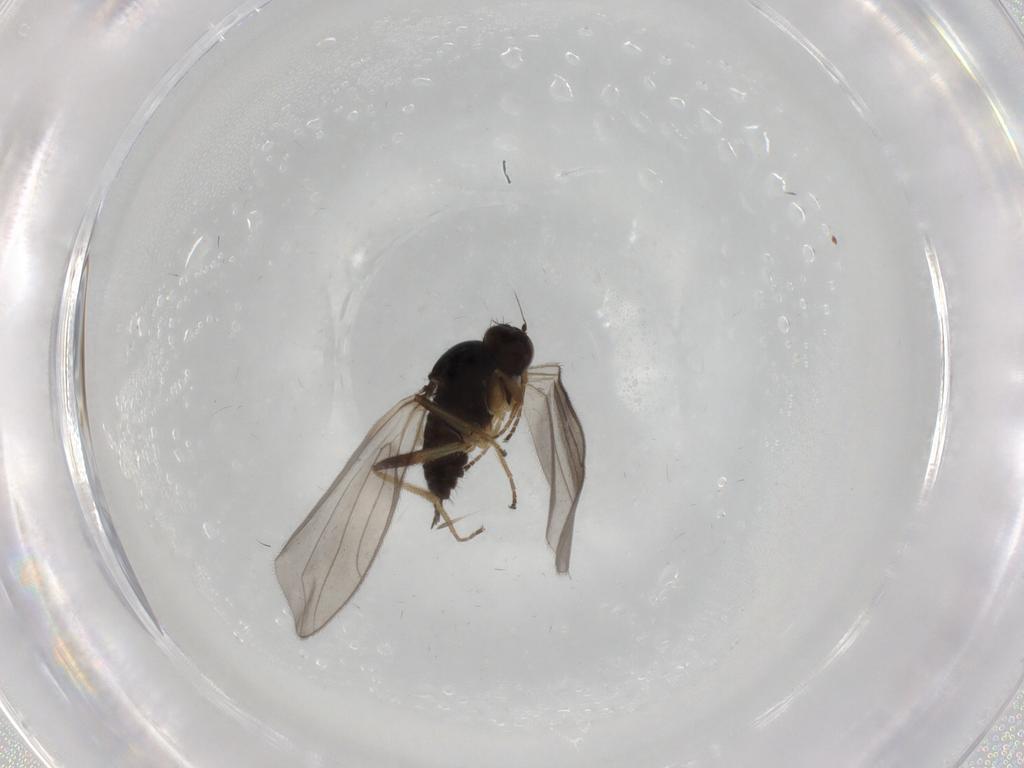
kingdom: Animalia
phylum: Arthropoda
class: Insecta
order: Diptera
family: Hybotidae
